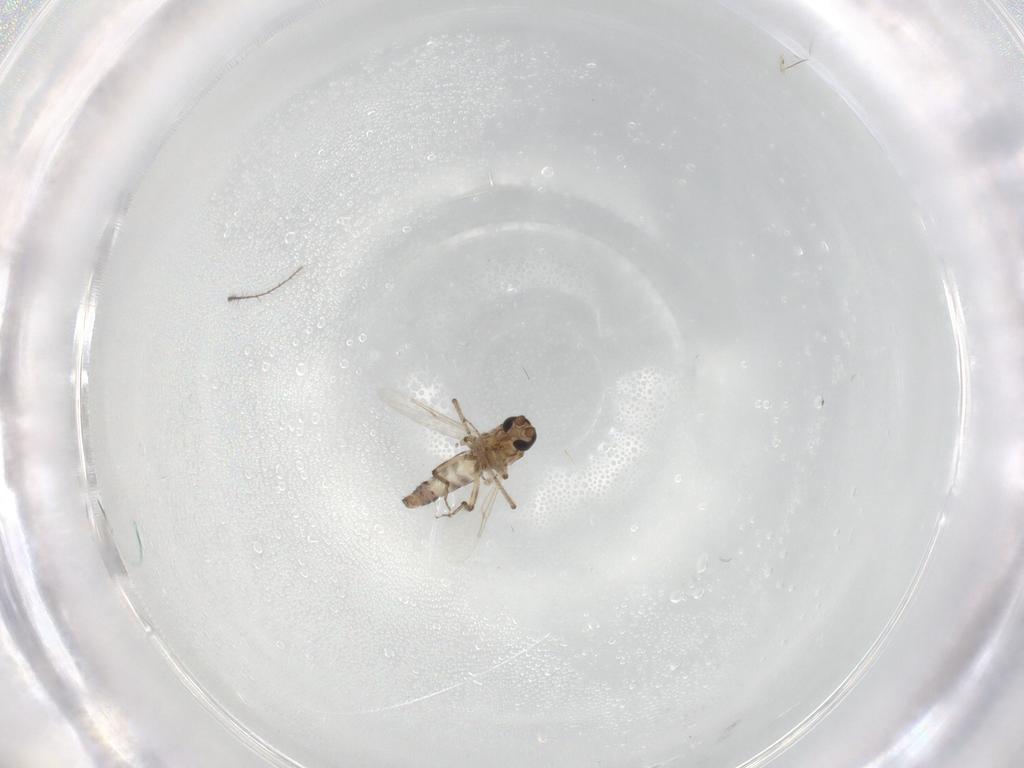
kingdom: Animalia
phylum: Arthropoda
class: Insecta
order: Diptera
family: Ceratopogonidae
